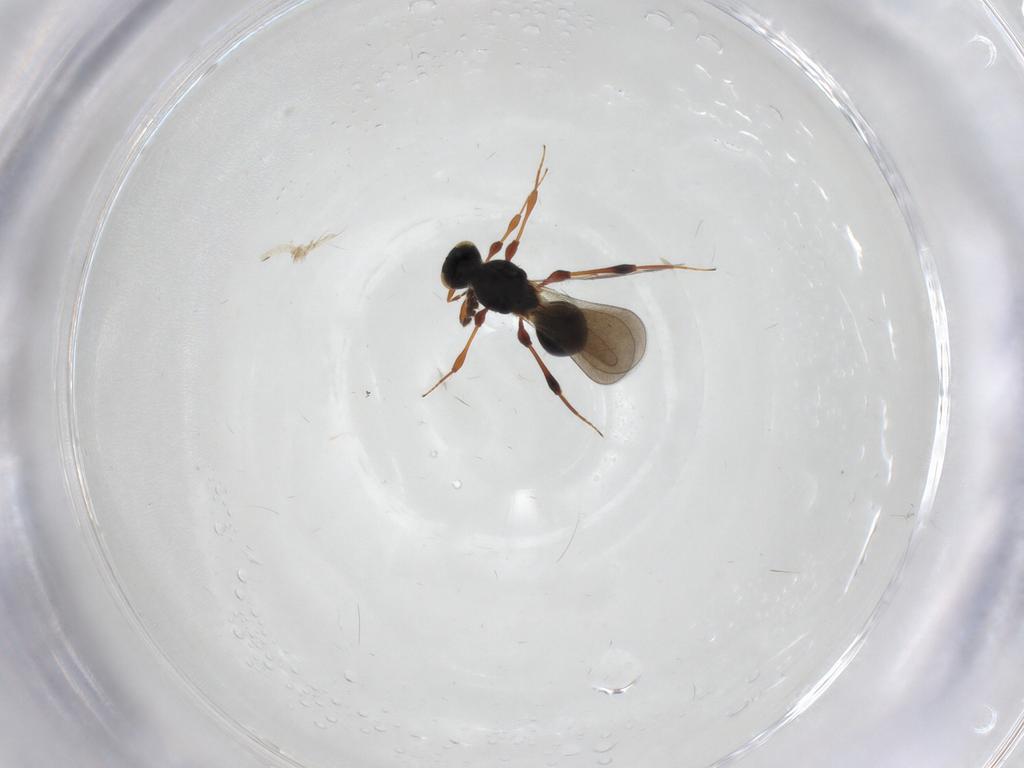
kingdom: Animalia
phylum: Arthropoda
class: Insecta
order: Hymenoptera
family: Platygastridae
